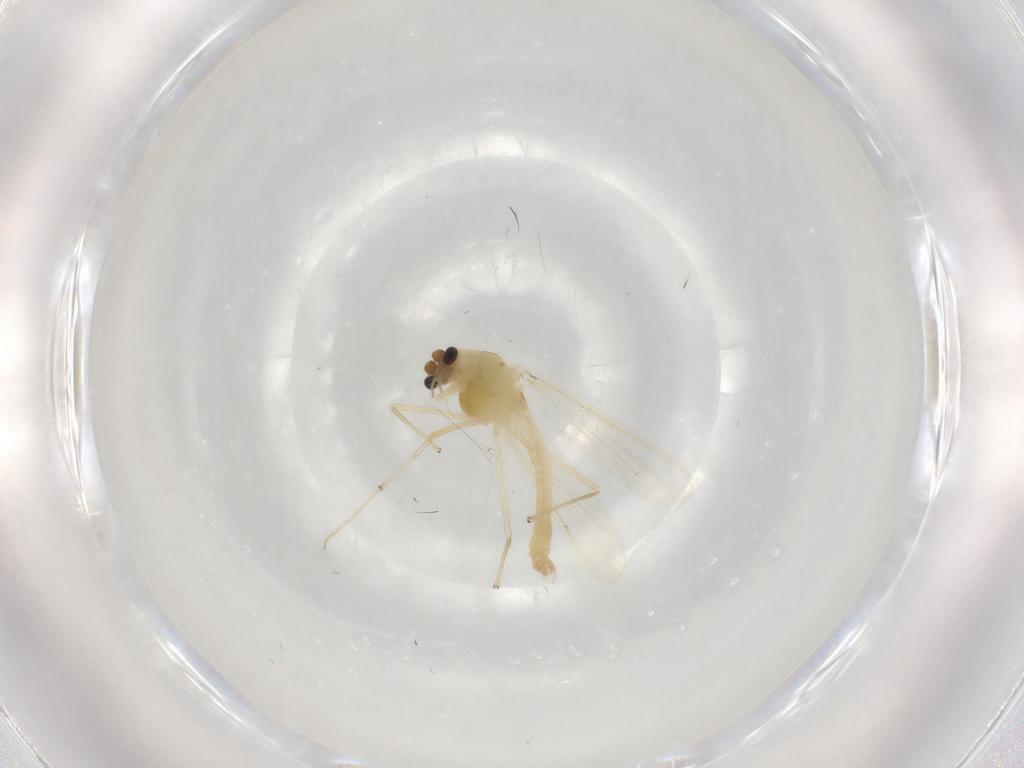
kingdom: Animalia
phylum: Arthropoda
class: Insecta
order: Diptera
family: Chironomidae
